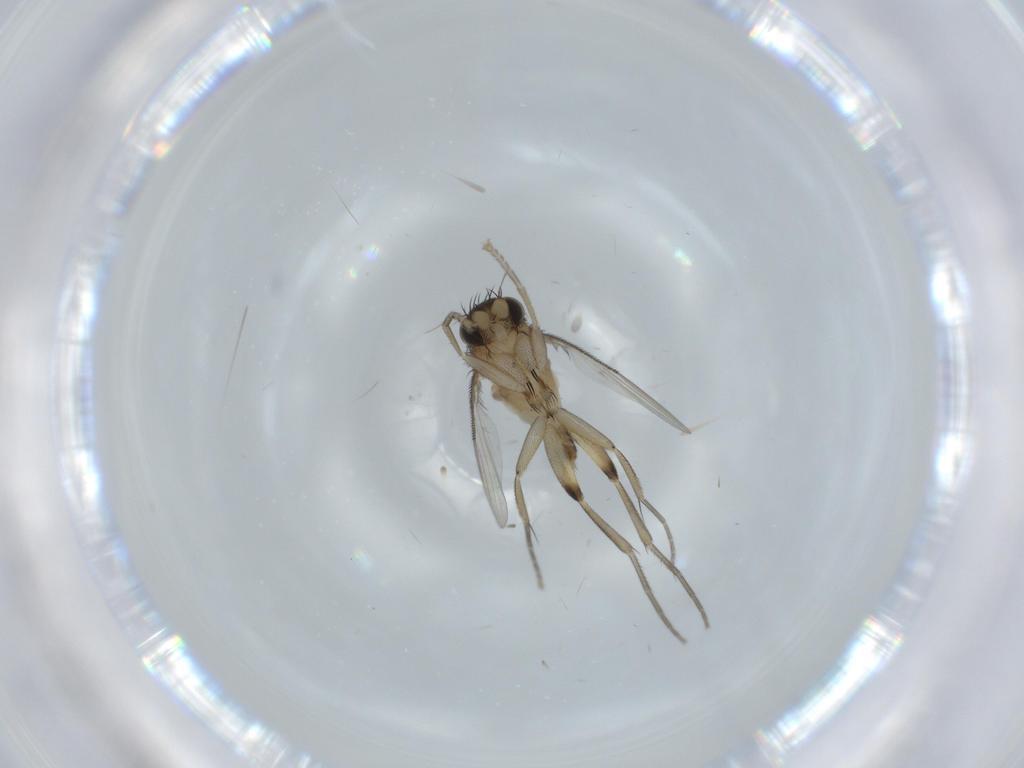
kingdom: Animalia
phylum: Arthropoda
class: Insecta
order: Diptera
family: Phoridae
